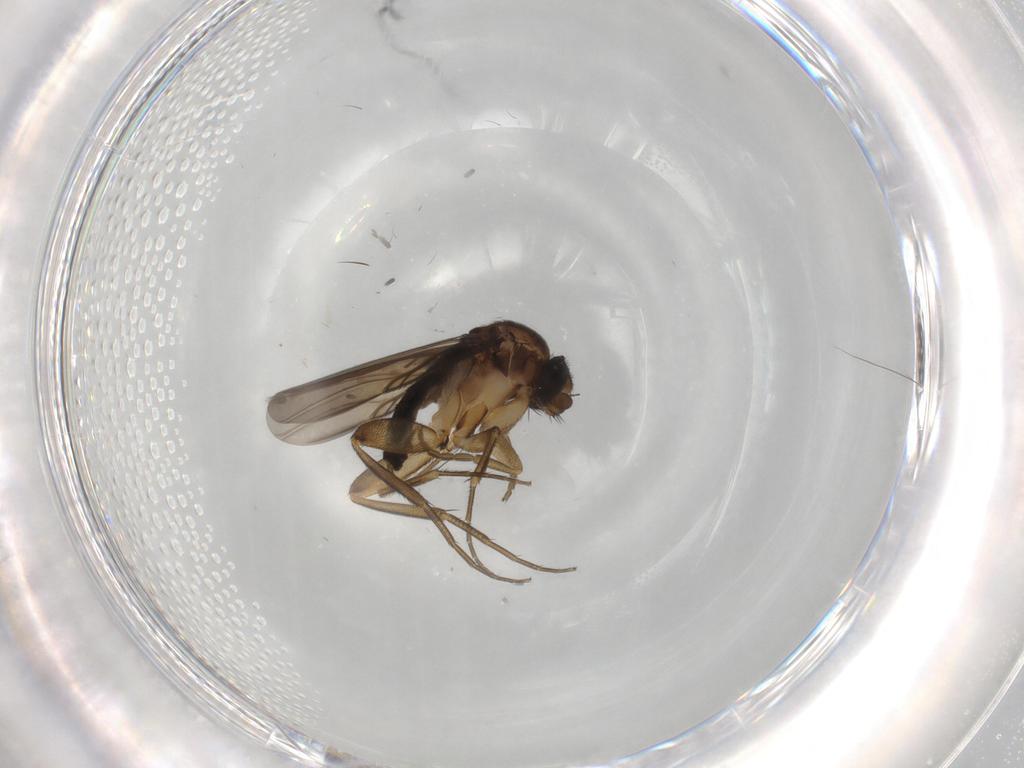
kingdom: Animalia
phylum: Arthropoda
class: Insecta
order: Diptera
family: Phoridae
